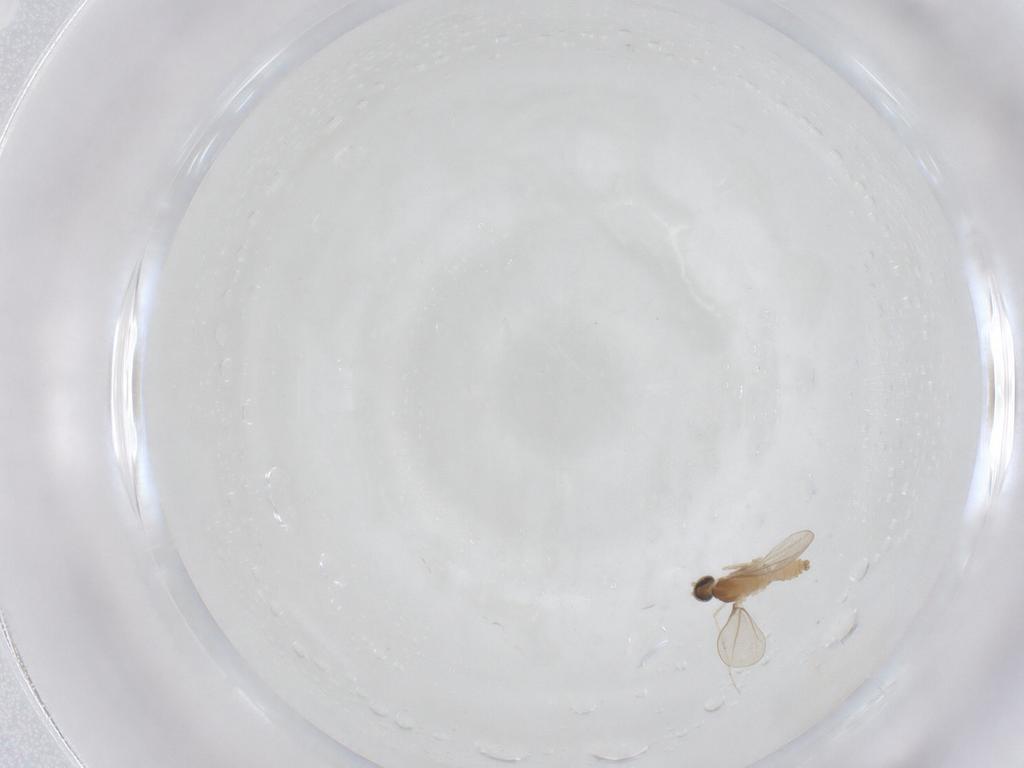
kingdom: Animalia
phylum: Arthropoda
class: Insecta
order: Diptera
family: Cecidomyiidae
